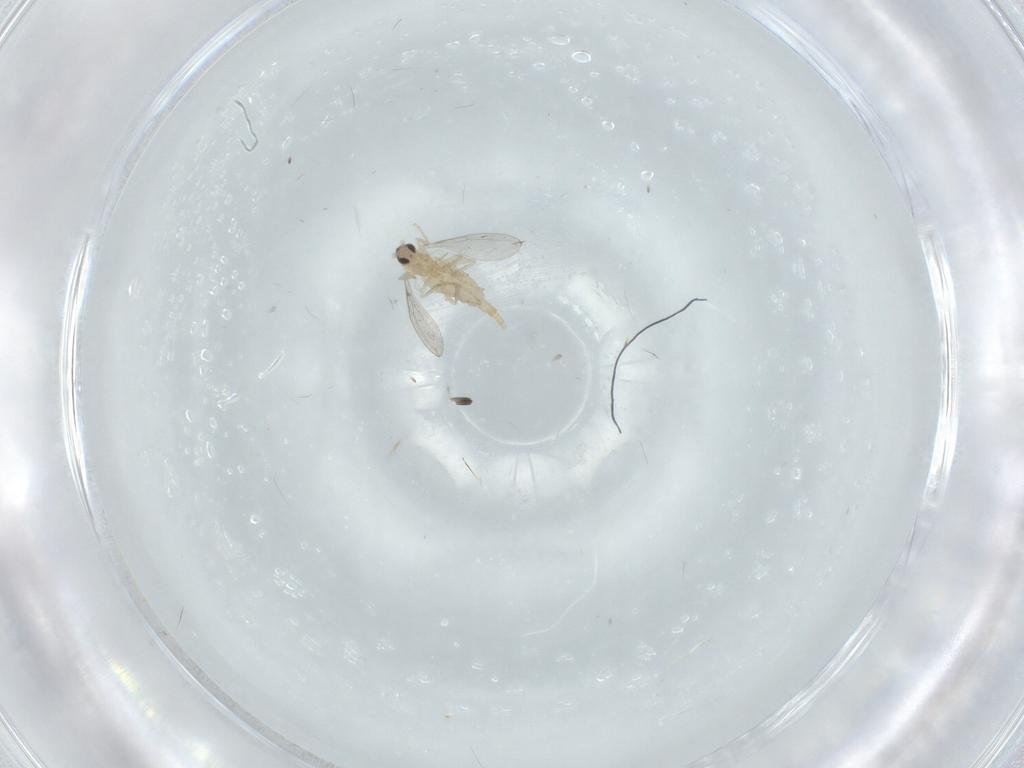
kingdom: Animalia
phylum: Arthropoda
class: Insecta
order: Diptera
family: Cecidomyiidae
